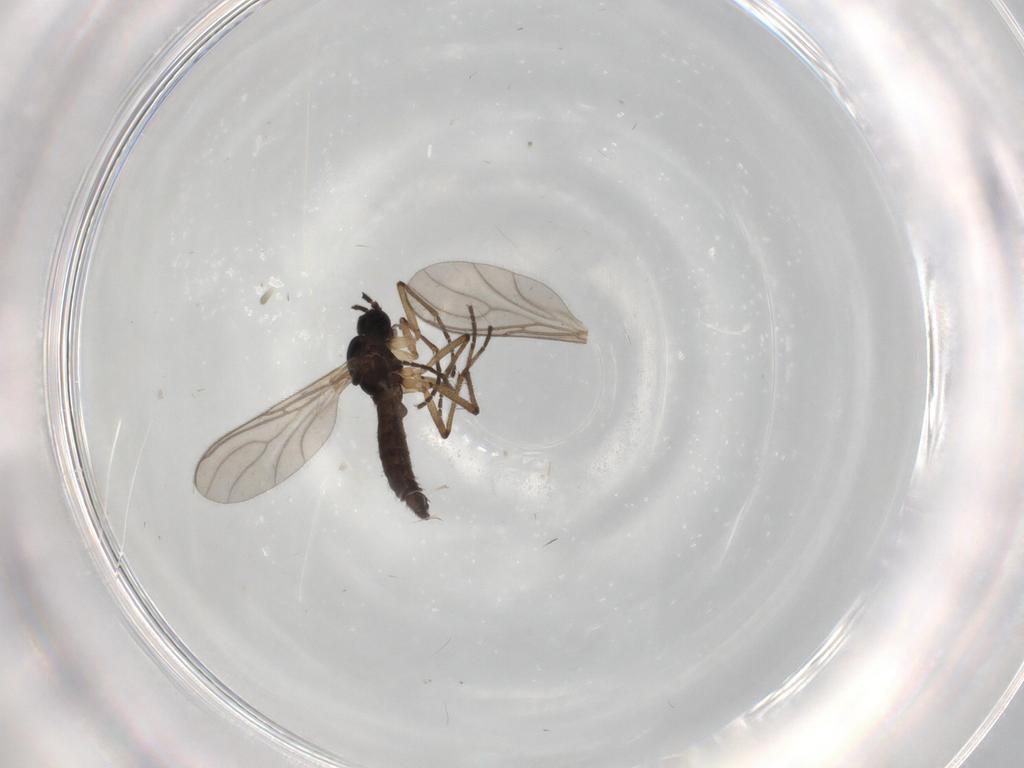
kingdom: Animalia
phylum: Arthropoda
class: Insecta
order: Diptera
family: Sciaridae
